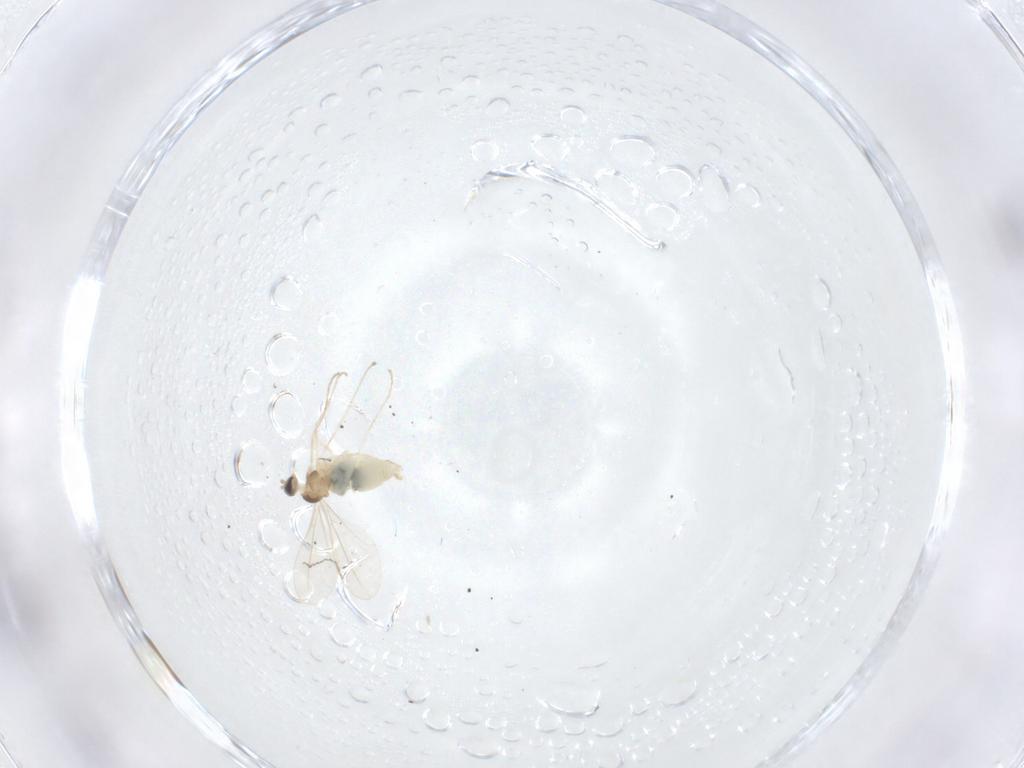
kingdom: Animalia
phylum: Arthropoda
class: Insecta
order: Diptera
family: Cecidomyiidae
